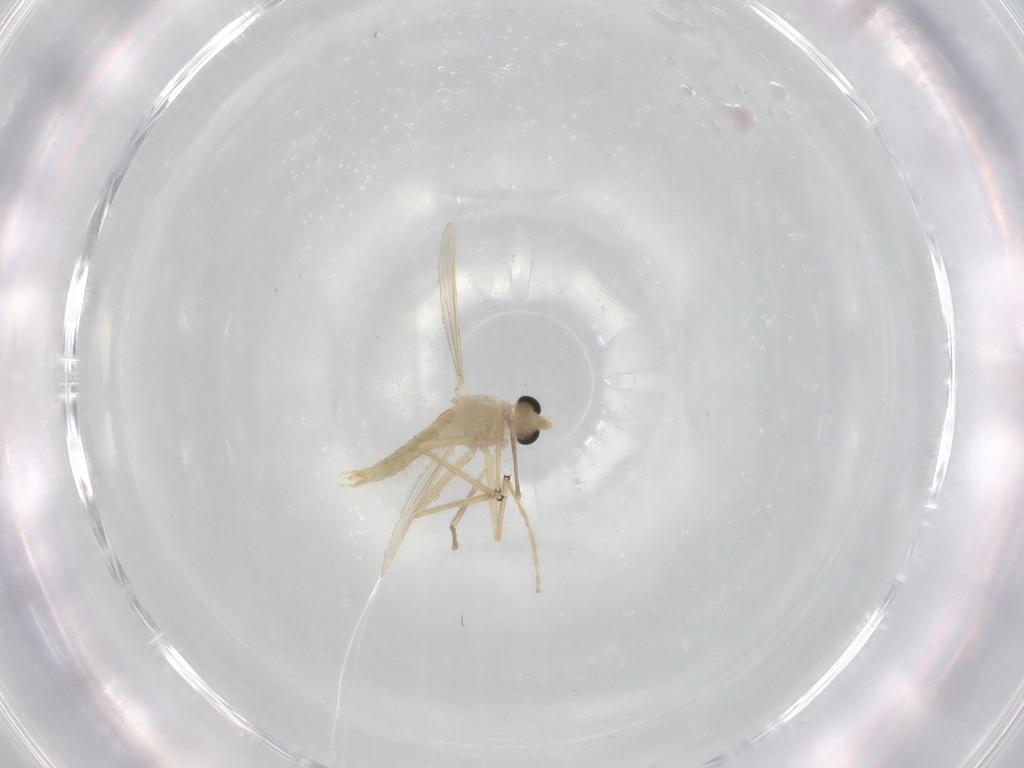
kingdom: Animalia
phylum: Arthropoda
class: Insecta
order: Diptera
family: Chironomidae
